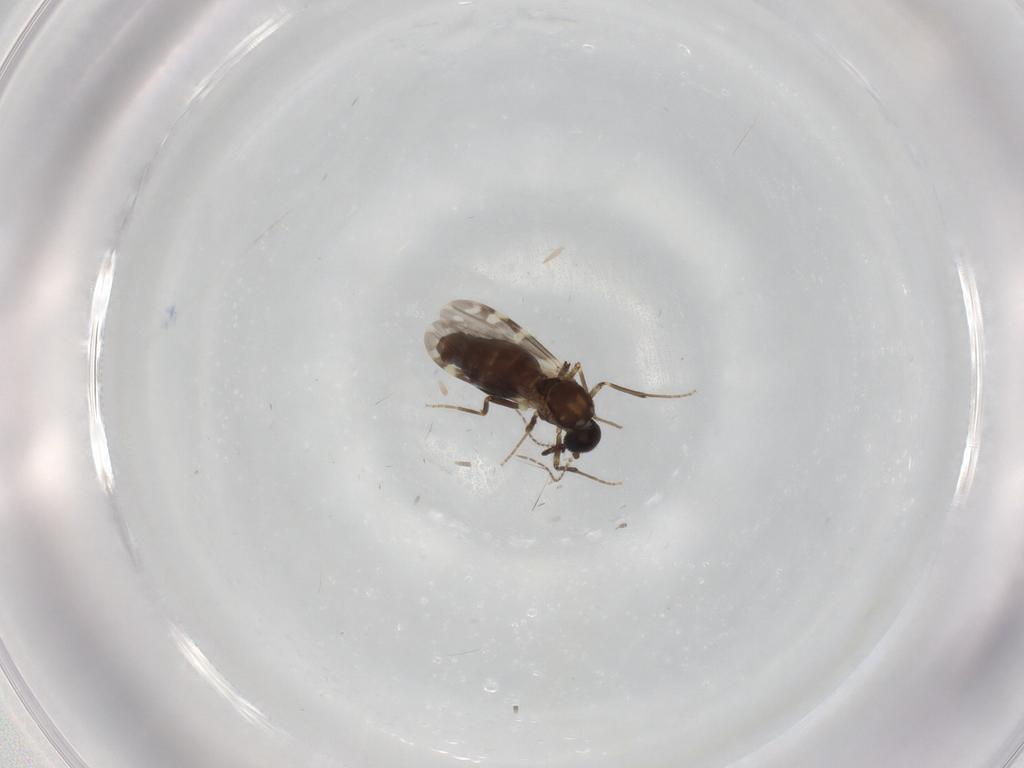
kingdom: Animalia
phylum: Arthropoda
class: Insecta
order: Diptera
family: Ceratopogonidae
